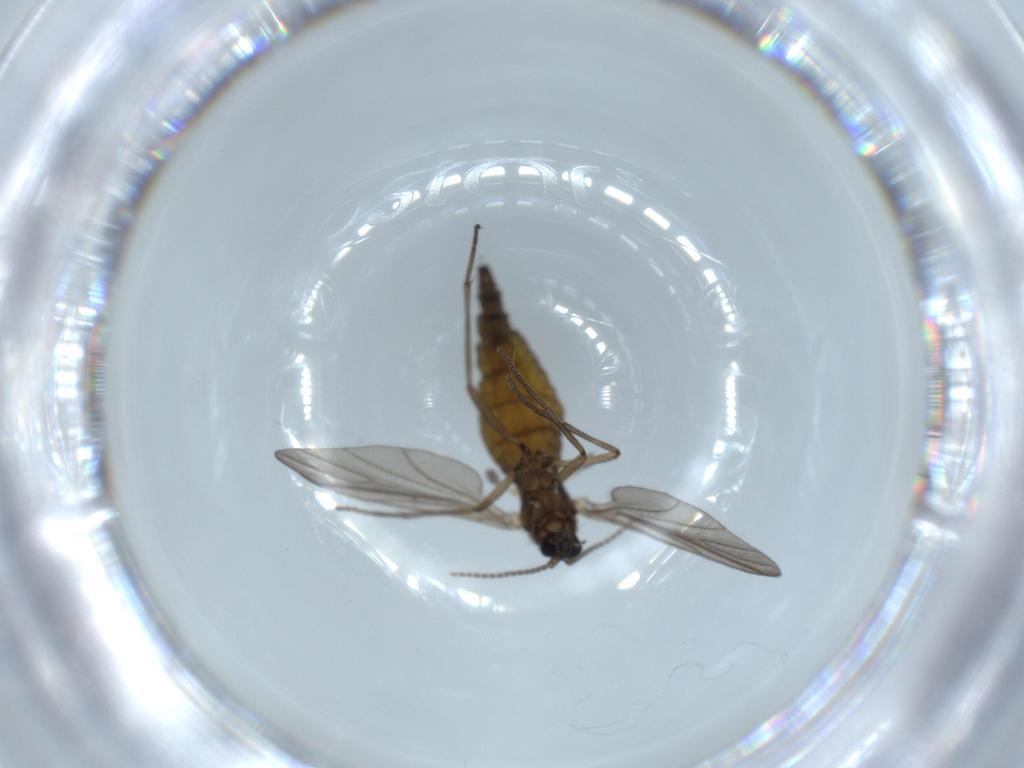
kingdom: Animalia
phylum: Arthropoda
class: Insecta
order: Diptera
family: Sciaridae
